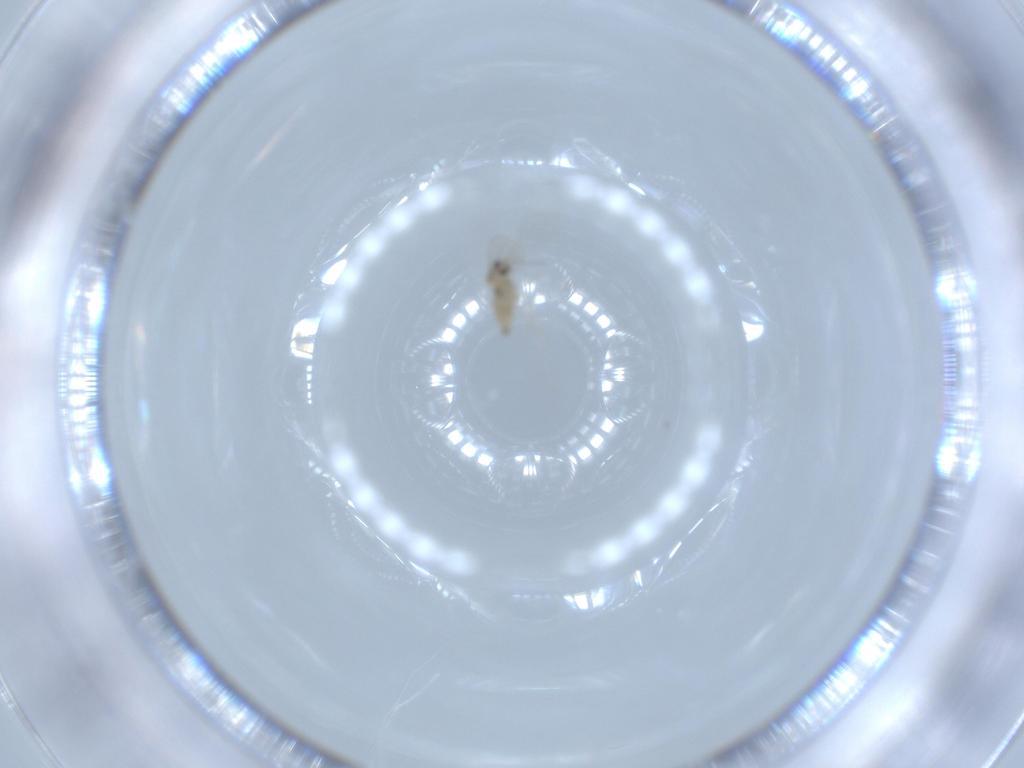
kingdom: Animalia
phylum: Arthropoda
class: Insecta
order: Diptera
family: Cecidomyiidae
